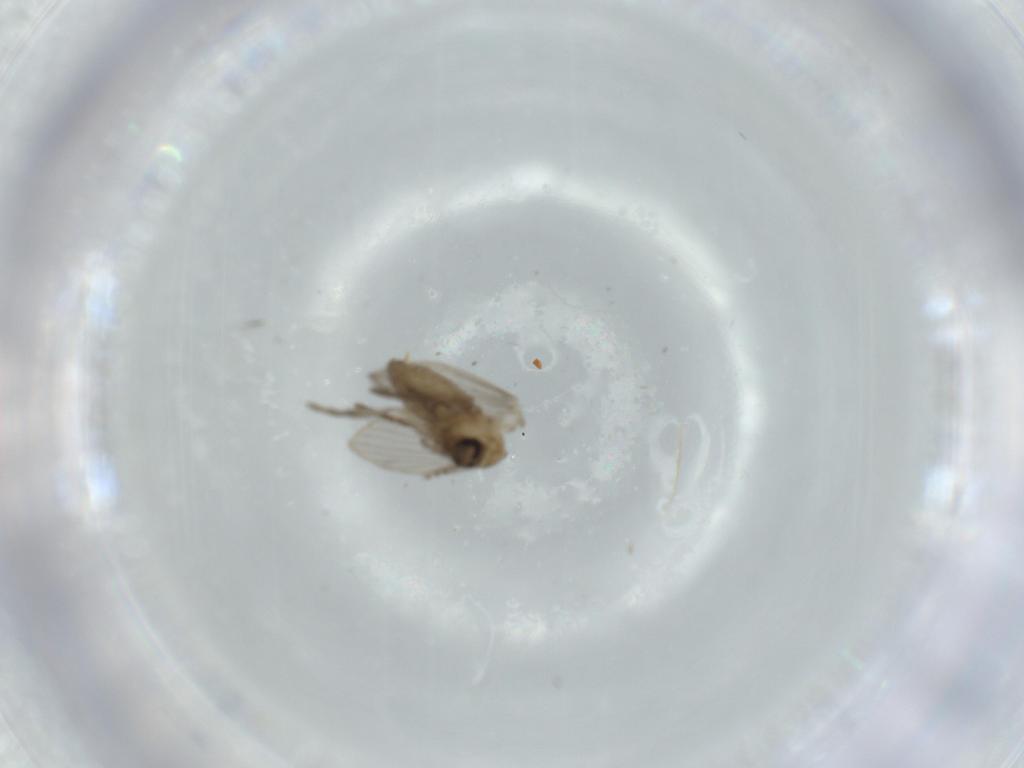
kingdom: Animalia
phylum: Arthropoda
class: Insecta
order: Diptera
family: Psychodidae
